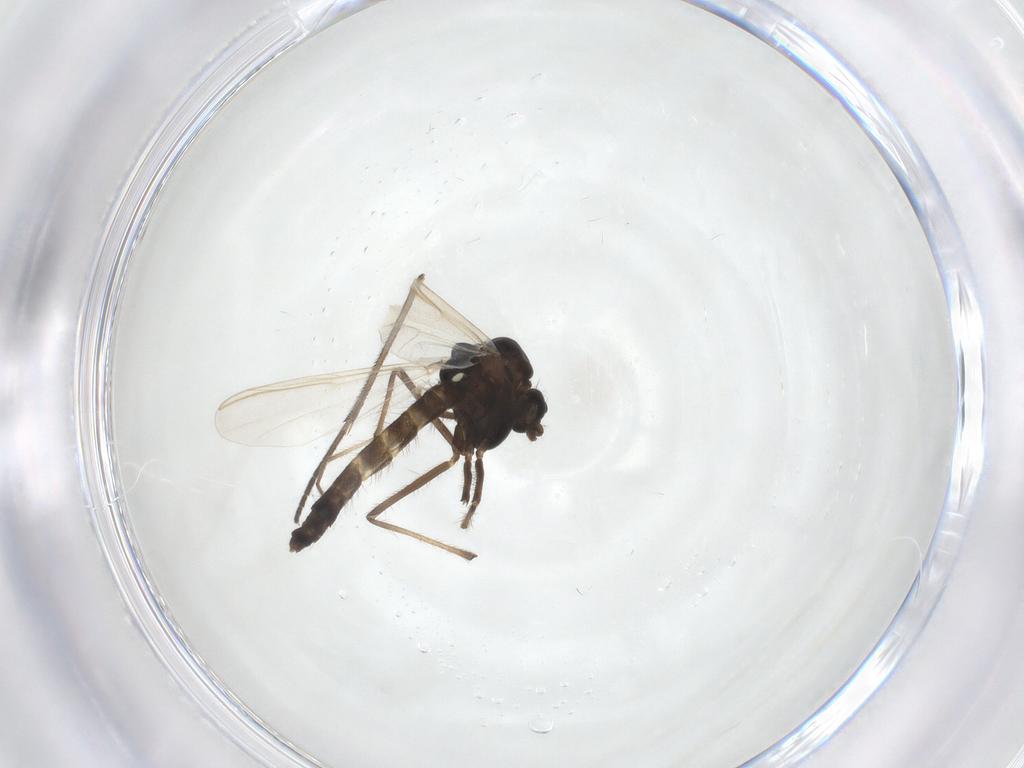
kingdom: Animalia
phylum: Arthropoda
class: Insecta
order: Diptera
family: Chironomidae
